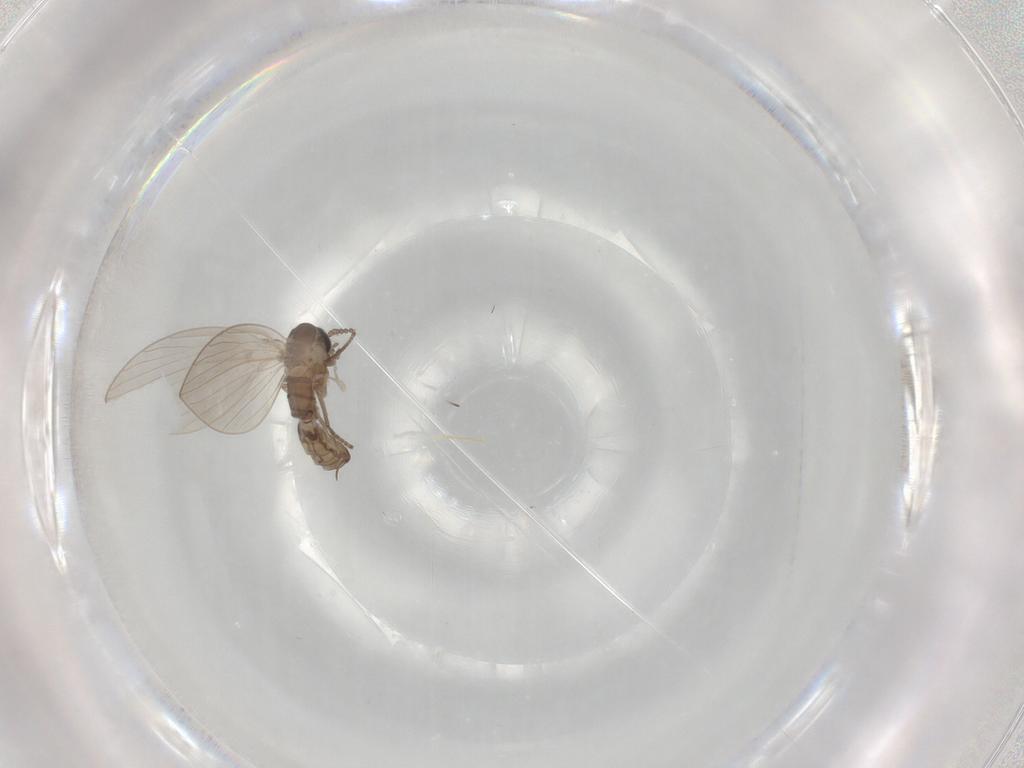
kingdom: Animalia
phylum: Arthropoda
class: Insecta
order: Diptera
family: Psychodidae
